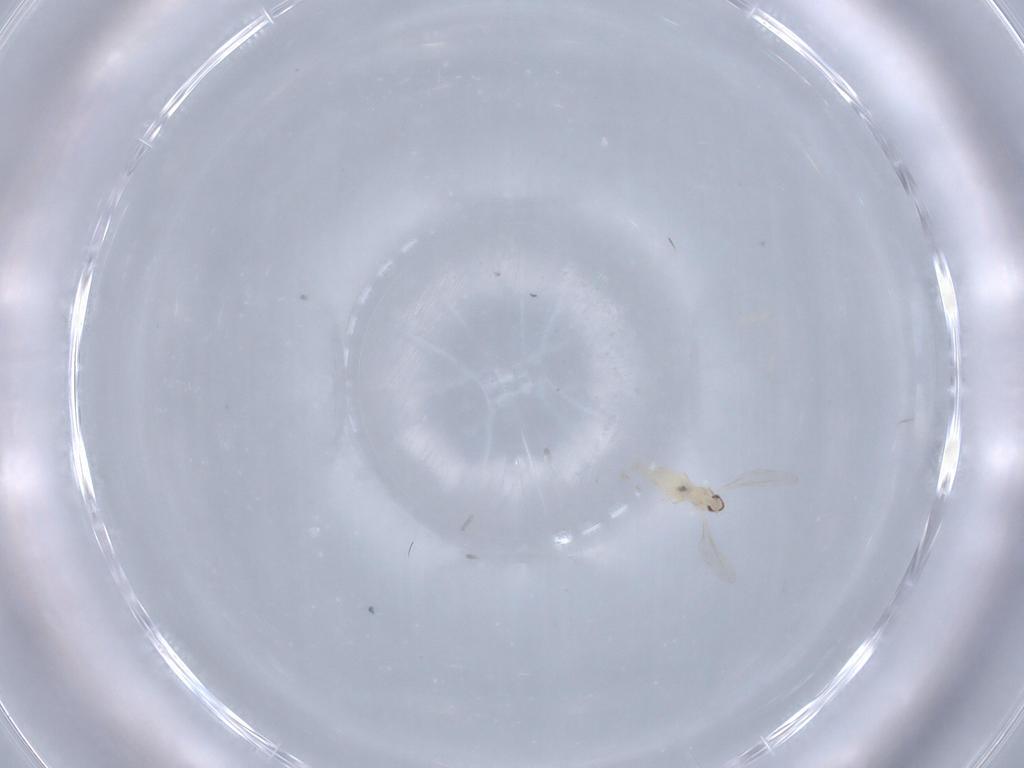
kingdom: Animalia
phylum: Arthropoda
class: Insecta
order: Diptera
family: Cecidomyiidae
